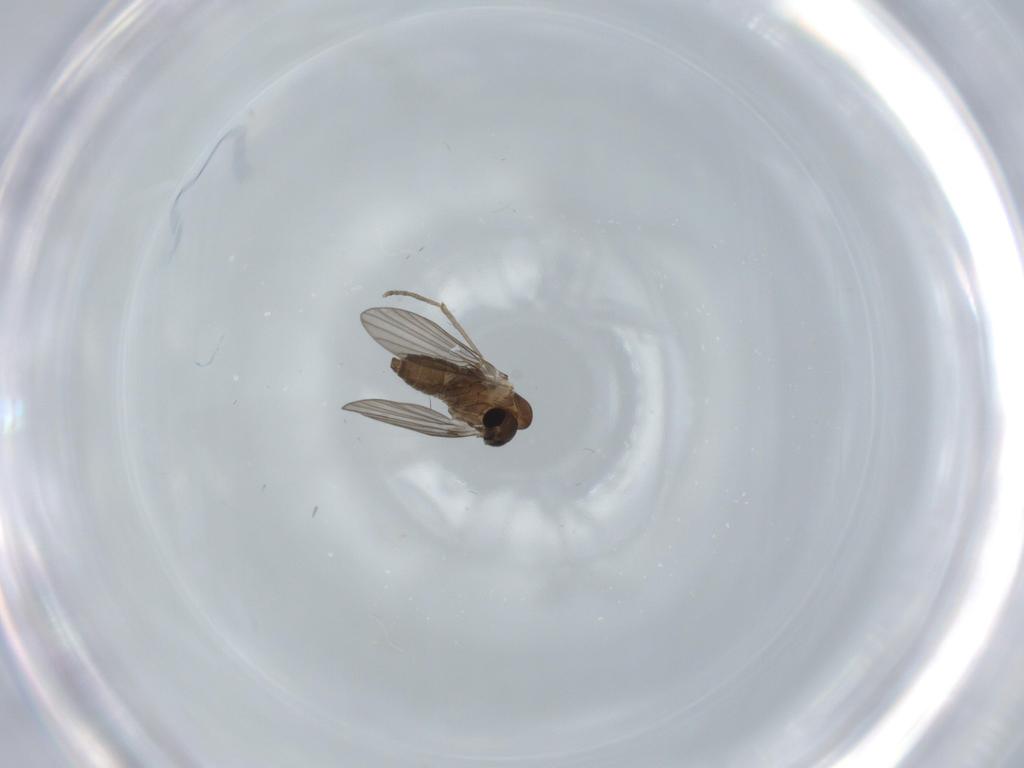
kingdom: Animalia
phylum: Arthropoda
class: Insecta
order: Diptera
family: Psychodidae
